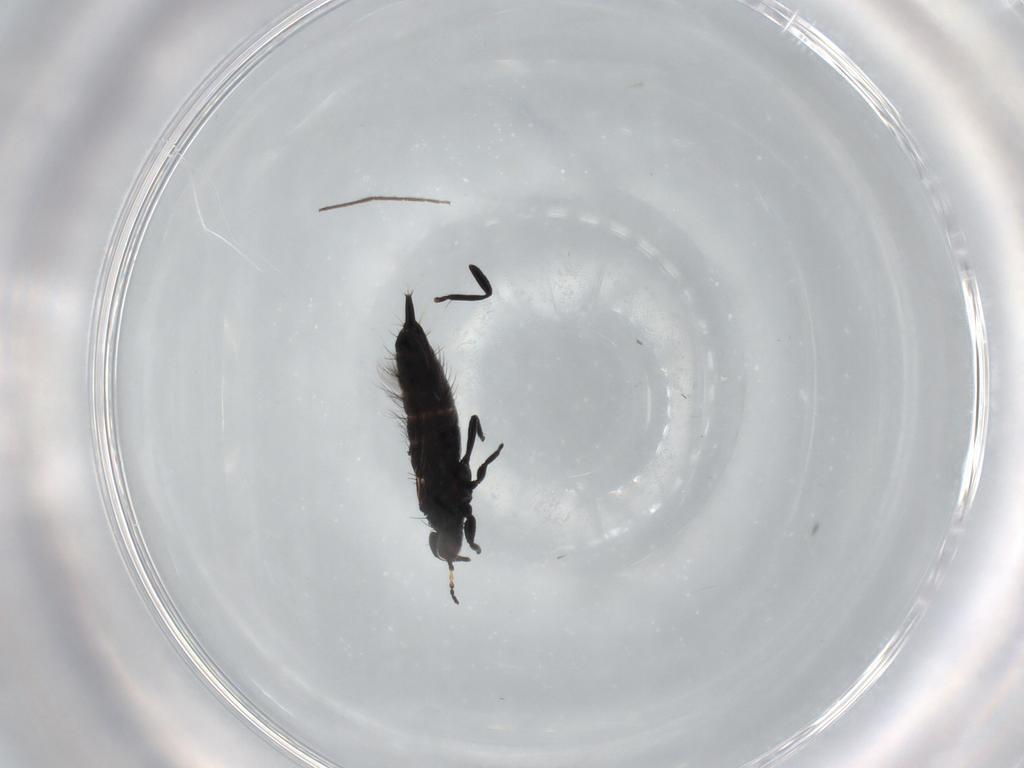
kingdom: Animalia
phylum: Arthropoda
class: Insecta
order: Thysanoptera
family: Phlaeothripidae
